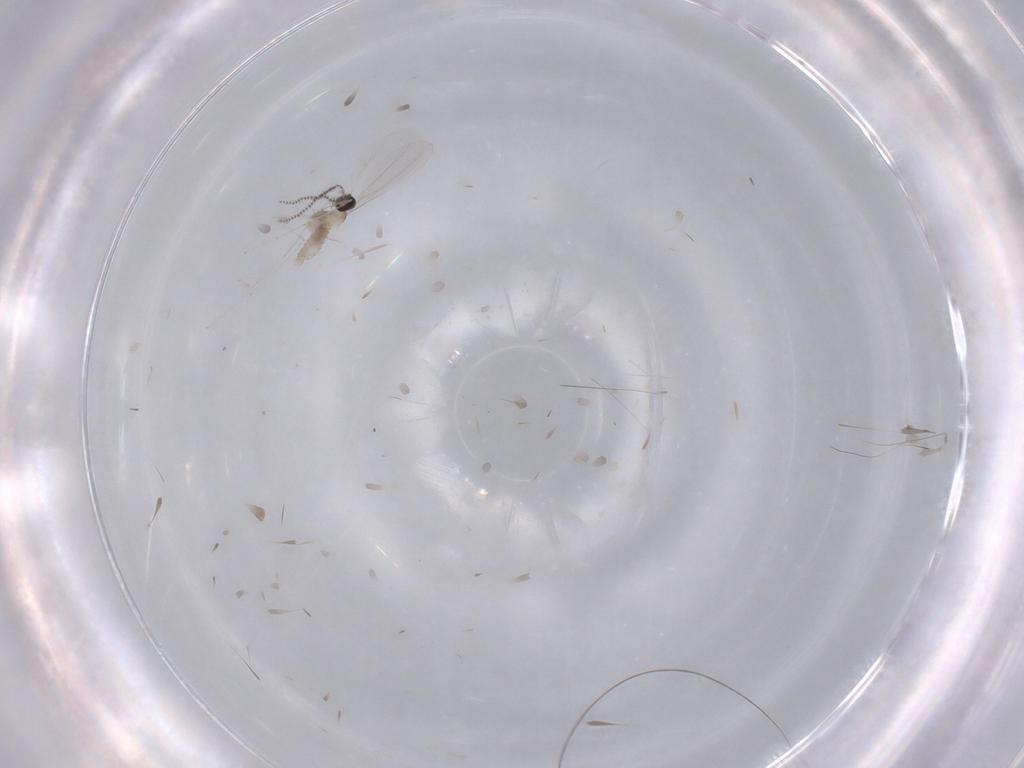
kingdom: Animalia
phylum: Arthropoda
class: Insecta
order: Diptera
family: Cecidomyiidae
